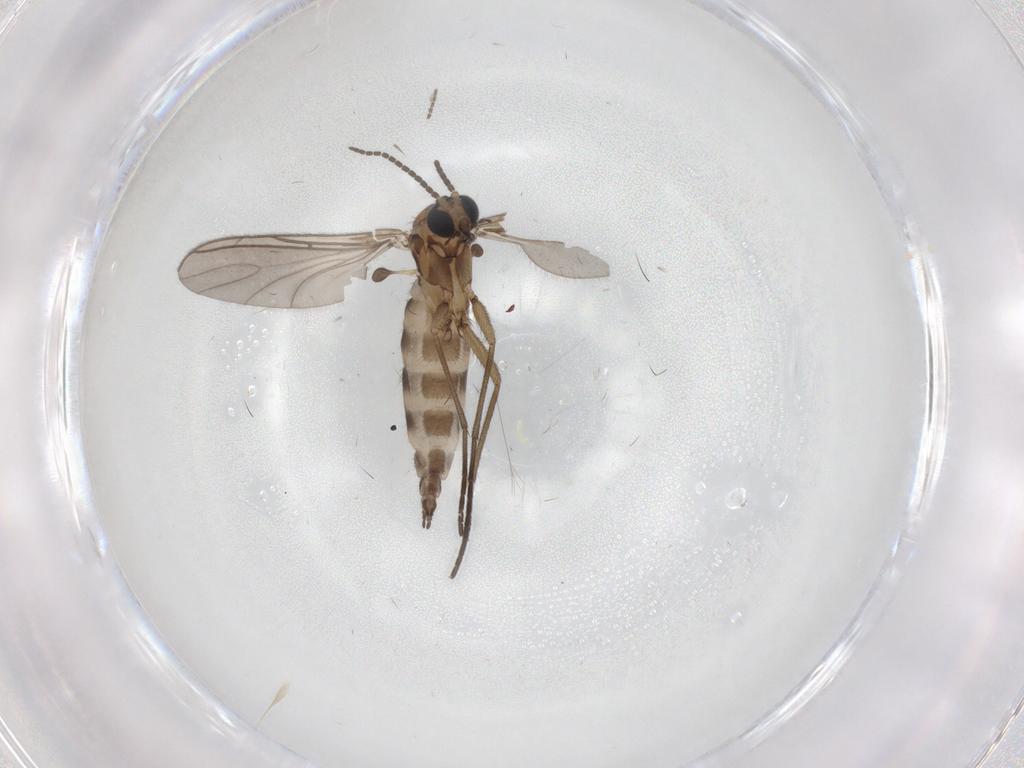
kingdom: Animalia
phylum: Arthropoda
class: Insecta
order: Diptera
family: Sciaridae
